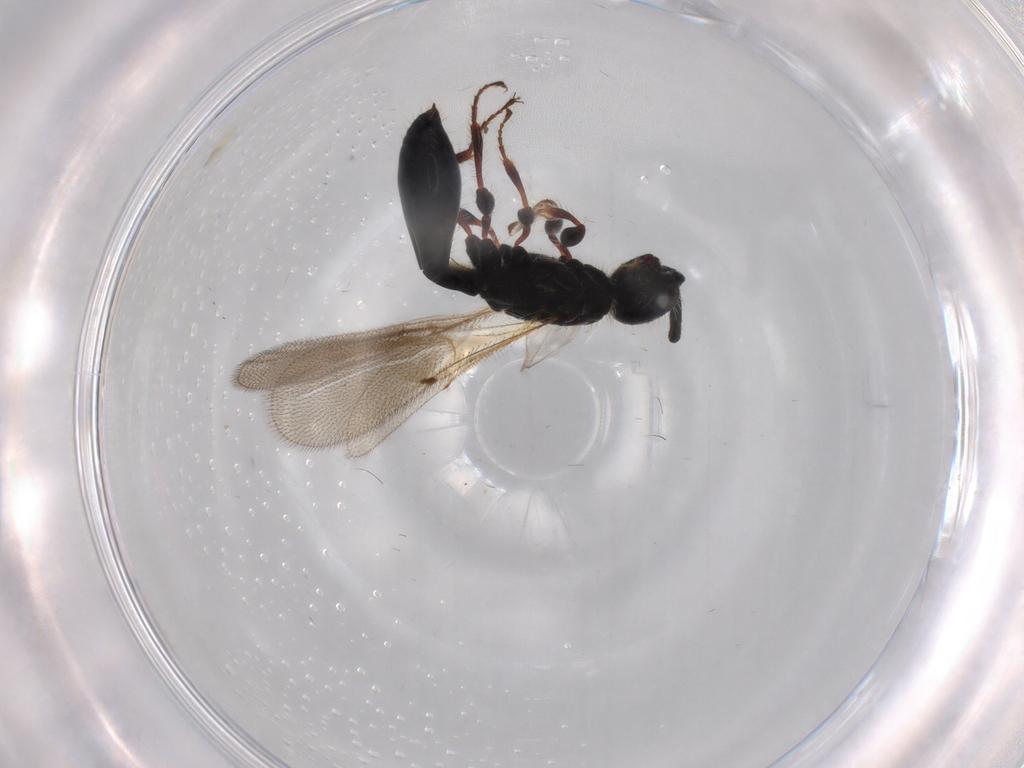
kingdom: Animalia
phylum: Arthropoda
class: Insecta
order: Hymenoptera
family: Diapriidae
